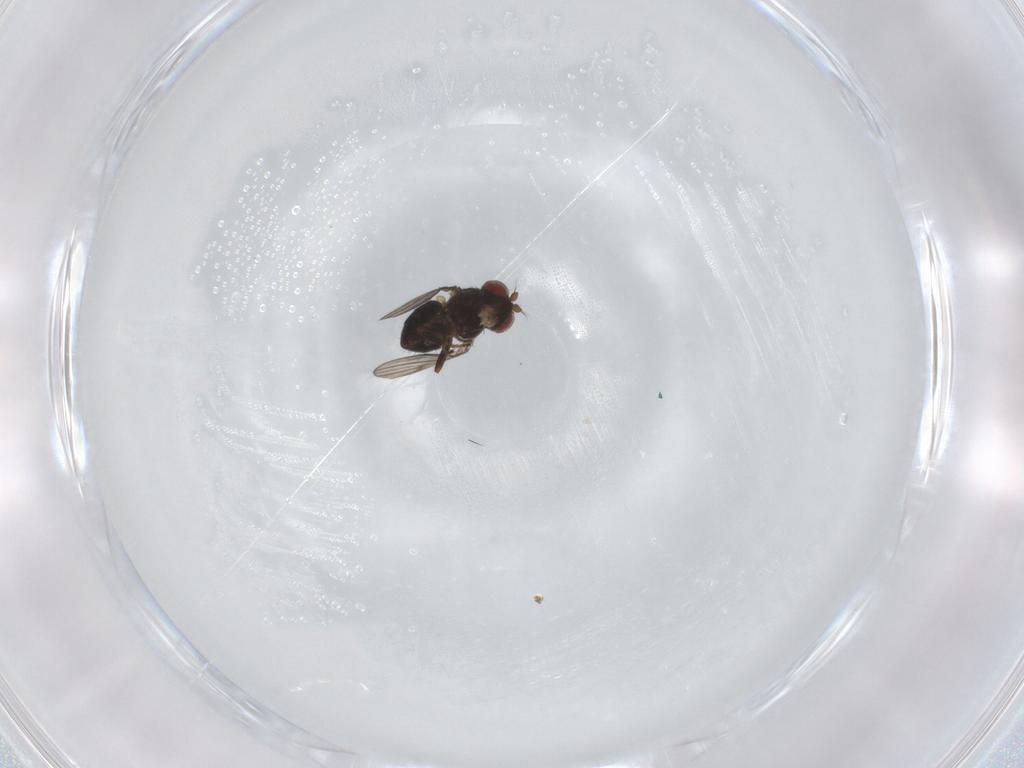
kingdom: Animalia
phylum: Arthropoda
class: Insecta
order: Diptera
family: Ephydridae
